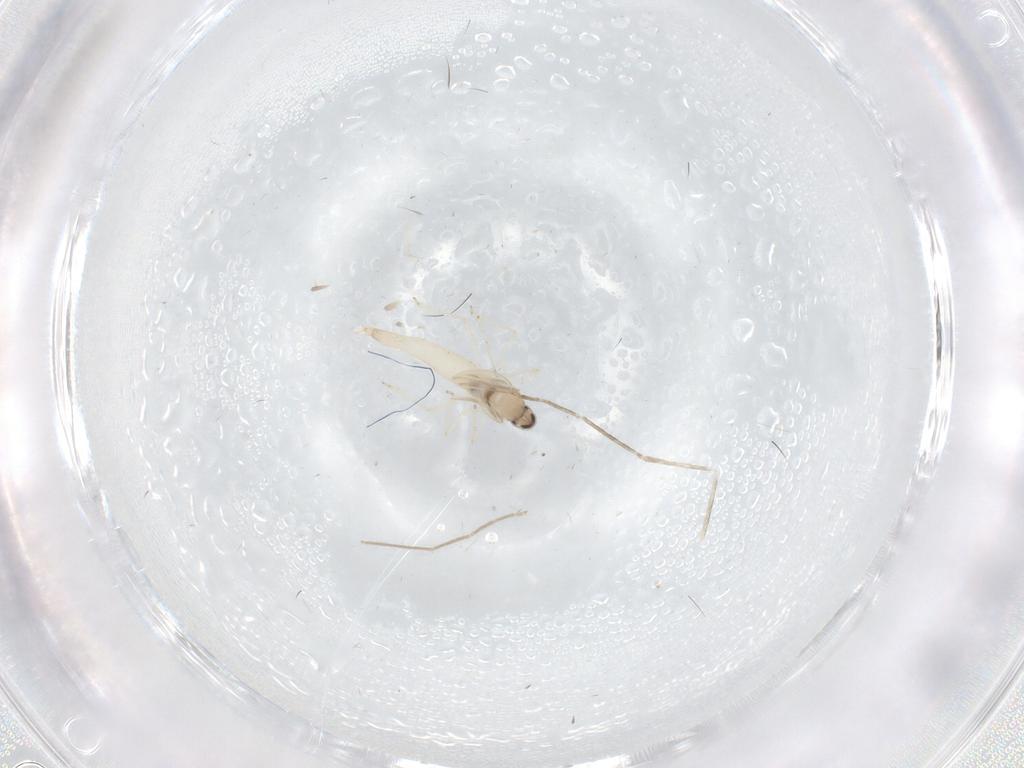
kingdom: Animalia
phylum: Arthropoda
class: Insecta
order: Diptera
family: Cecidomyiidae
